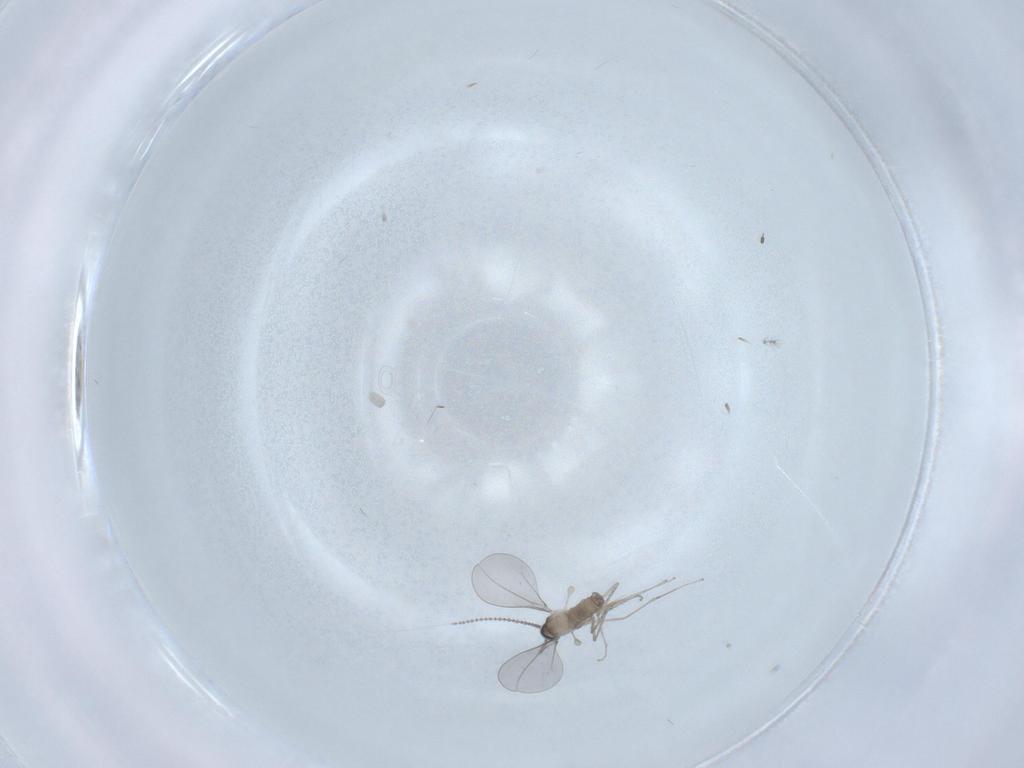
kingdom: Animalia
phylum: Arthropoda
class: Insecta
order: Diptera
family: Cecidomyiidae
